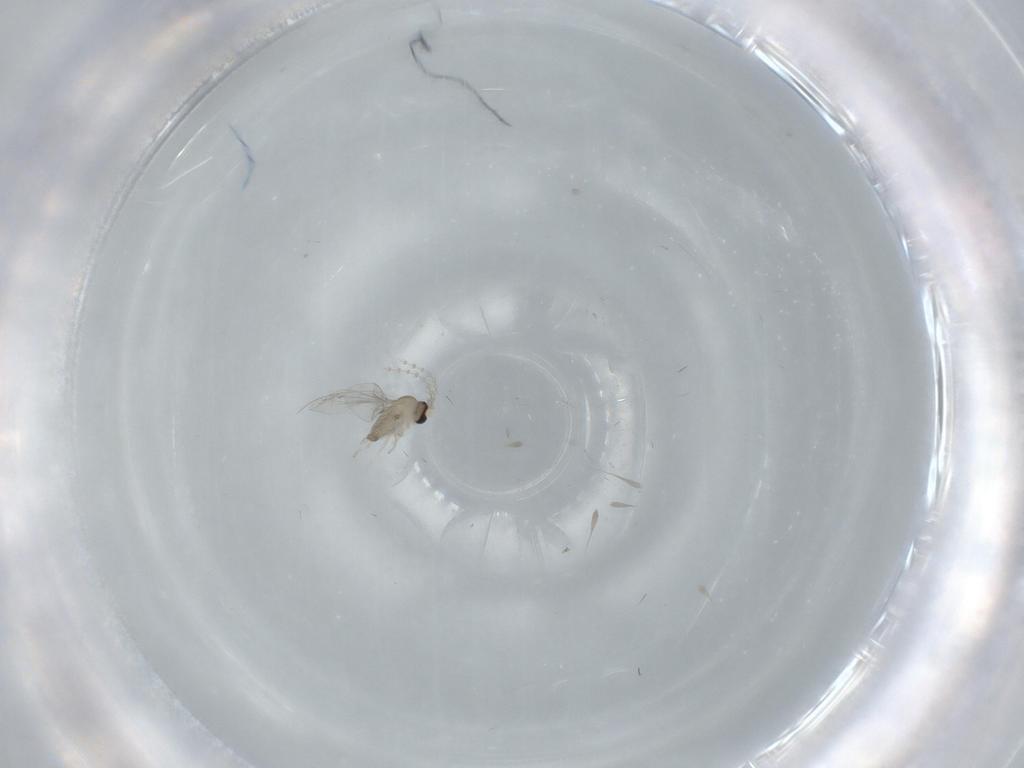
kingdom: Animalia
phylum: Arthropoda
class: Insecta
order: Diptera
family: Cecidomyiidae
